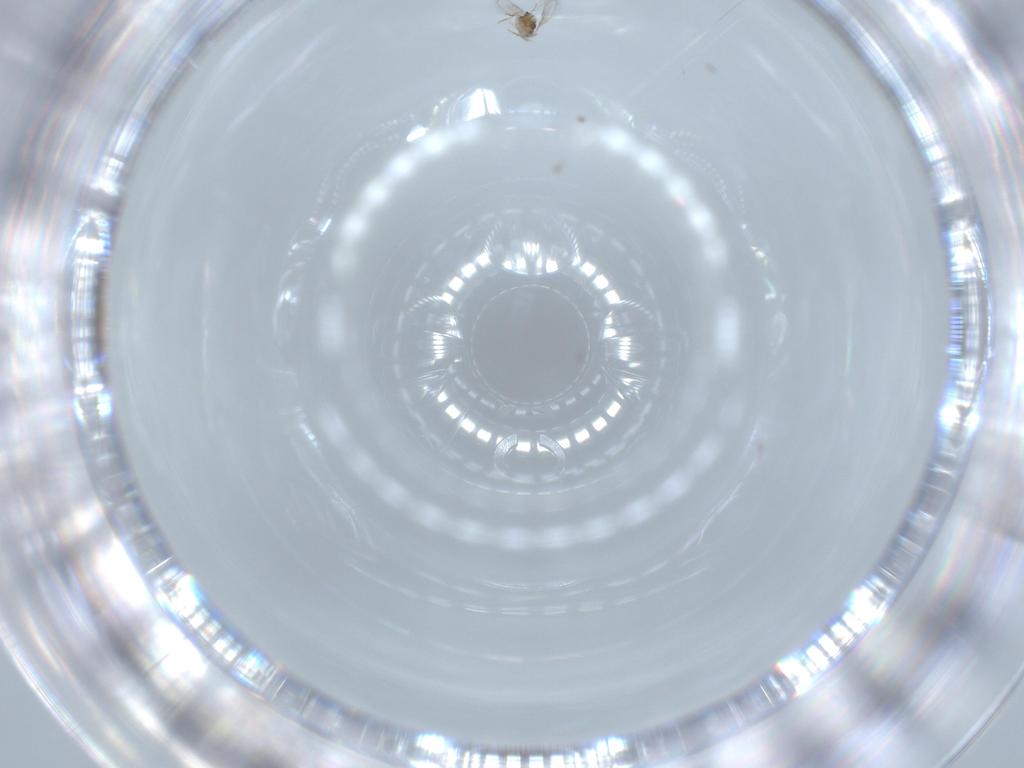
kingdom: Animalia
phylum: Arthropoda
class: Insecta
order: Hymenoptera
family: Aphelinidae
